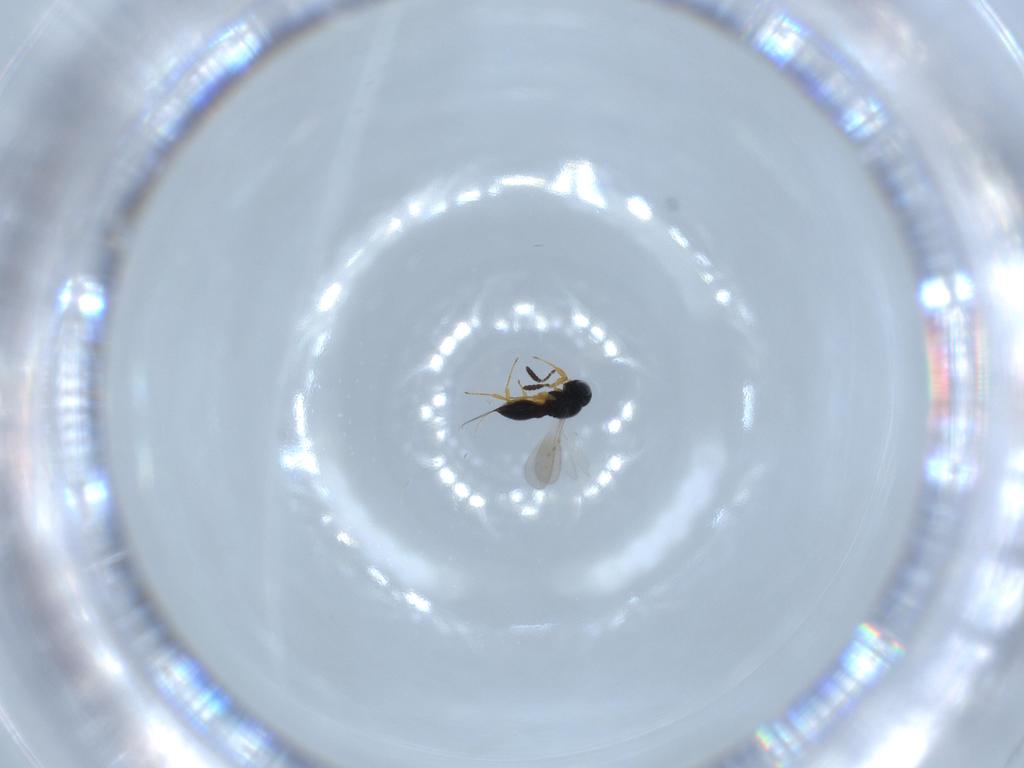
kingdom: Animalia
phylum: Arthropoda
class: Insecta
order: Hymenoptera
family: Scelionidae
